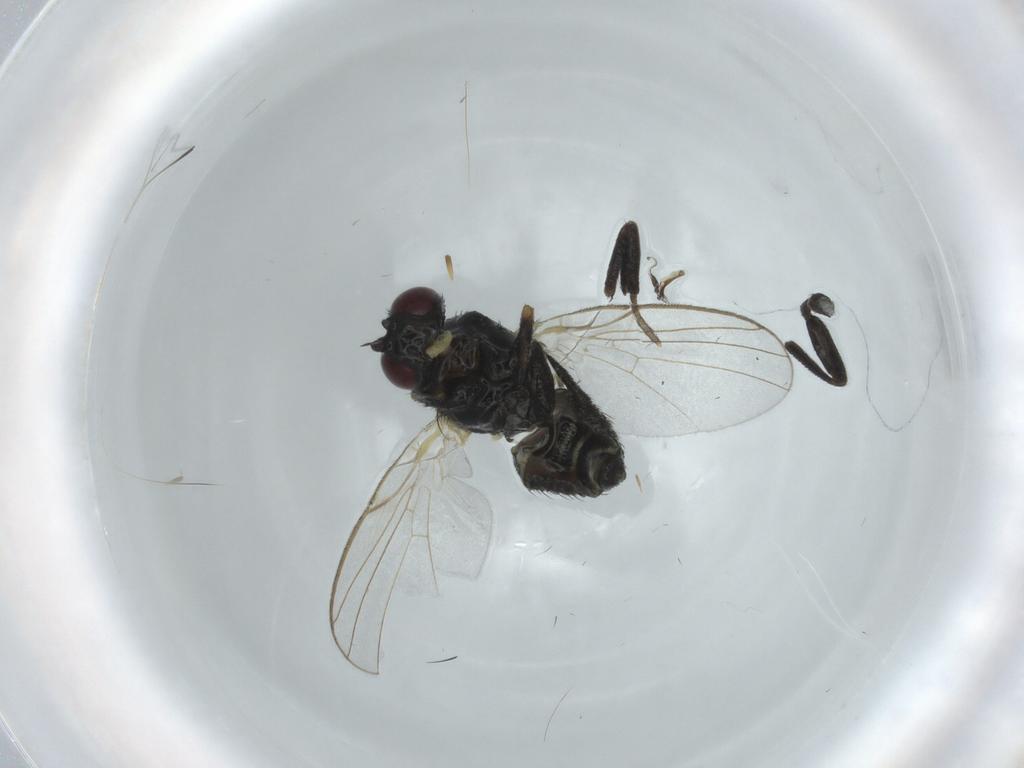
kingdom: Animalia
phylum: Arthropoda
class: Insecta
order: Diptera
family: Agromyzidae
